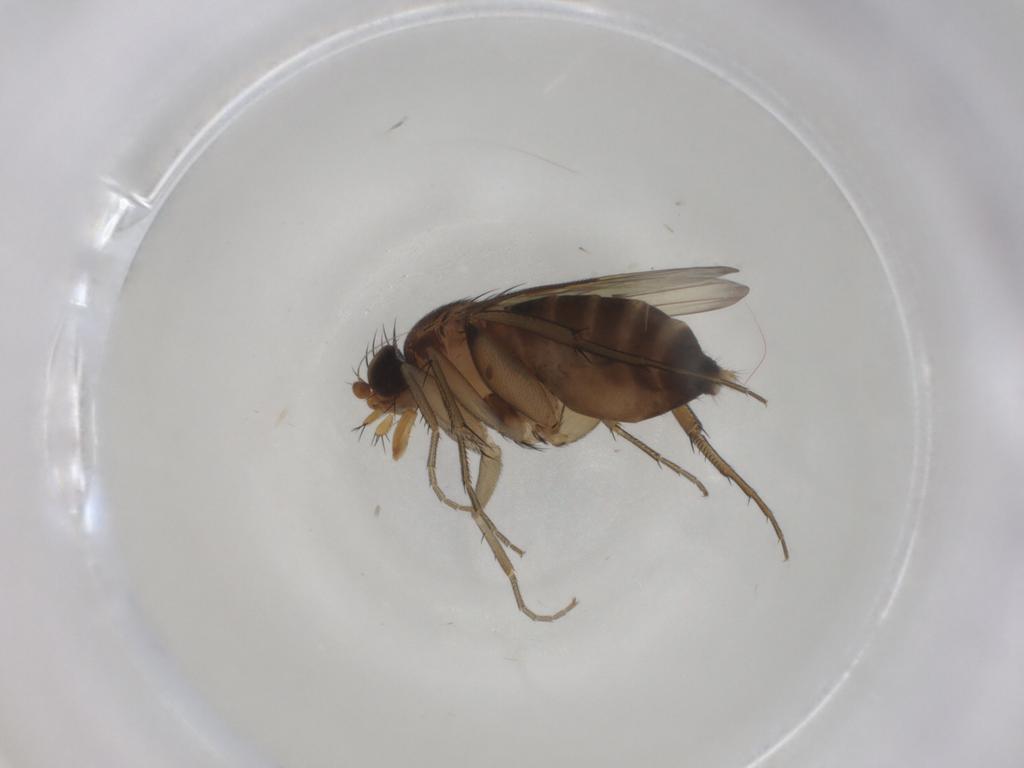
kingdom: Animalia
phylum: Arthropoda
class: Insecta
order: Diptera
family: Phoridae
